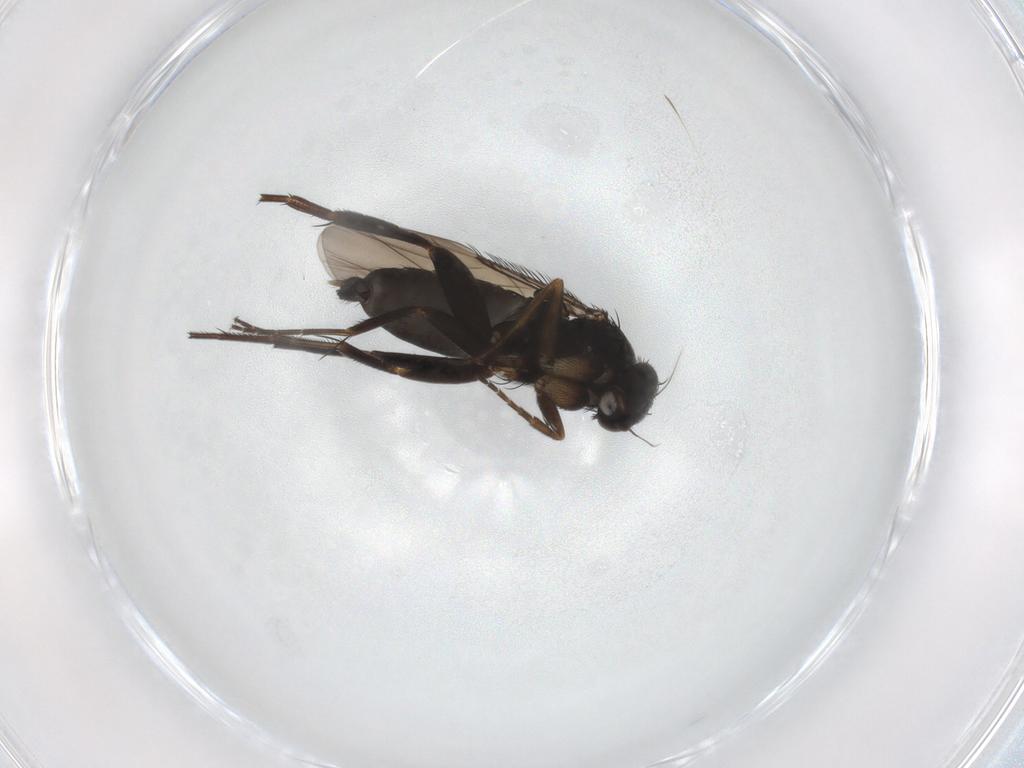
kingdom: Animalia
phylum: Arthropoda
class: Insecta
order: Diptera
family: Phoridae
